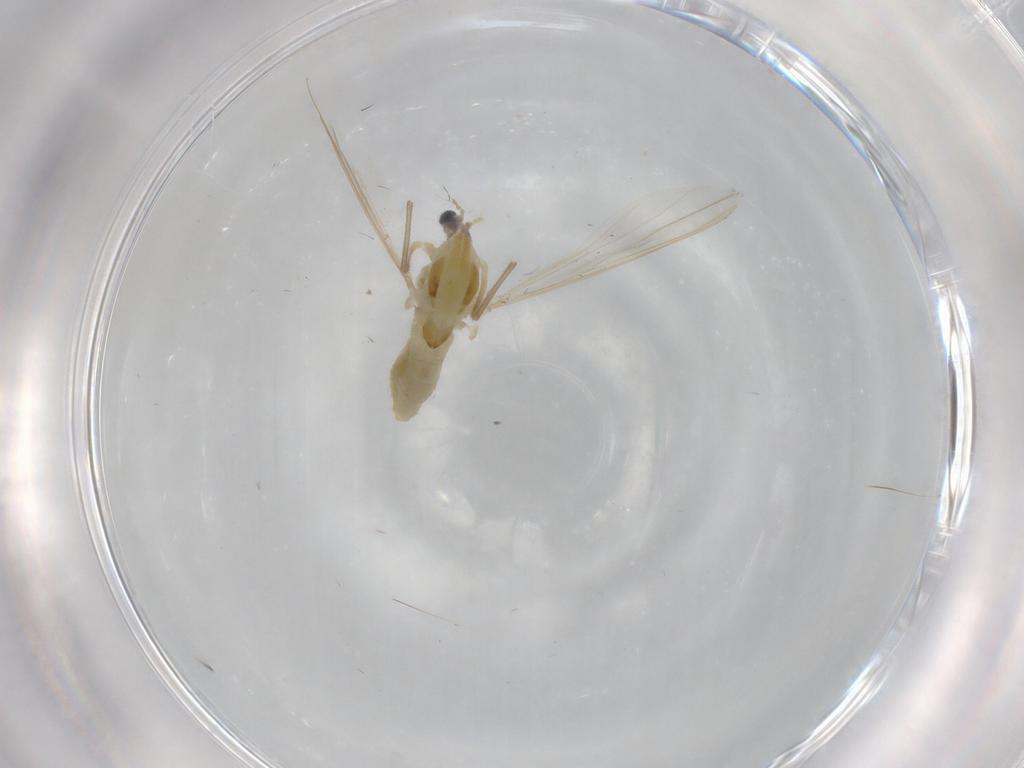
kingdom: Animalia
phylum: Arthropoda
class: Insecta
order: Diptera
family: Chironomidae
